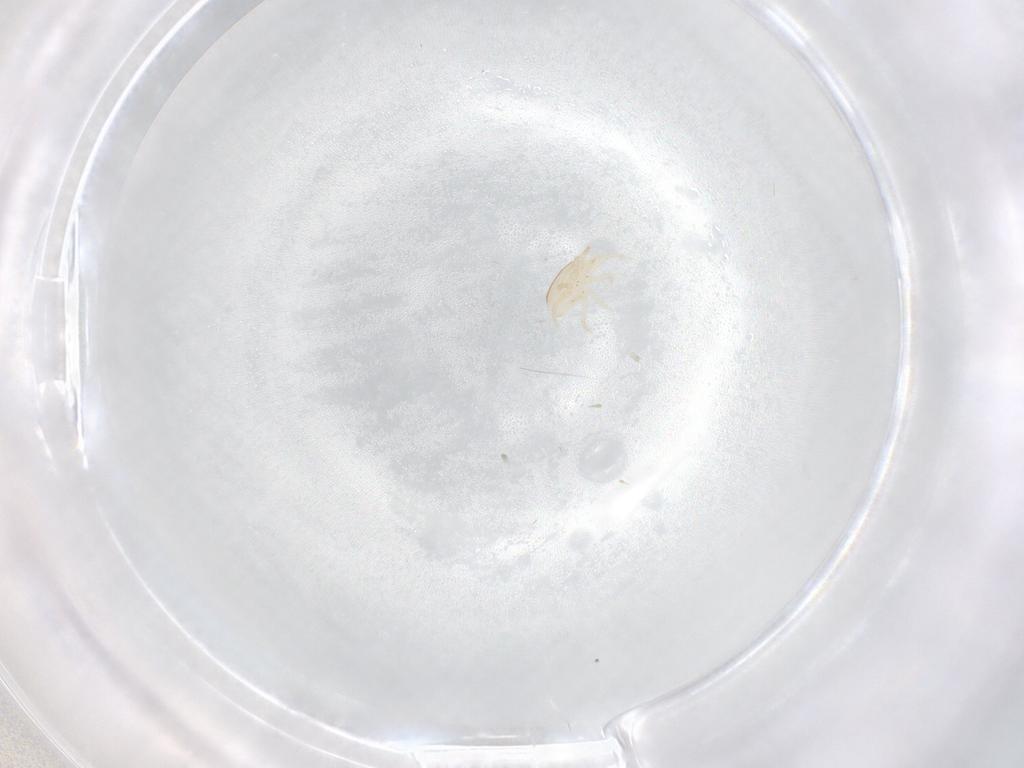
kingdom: Animalia
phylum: Arthropoda
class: Arachnida
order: Mesostigmata
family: Melicharidae
